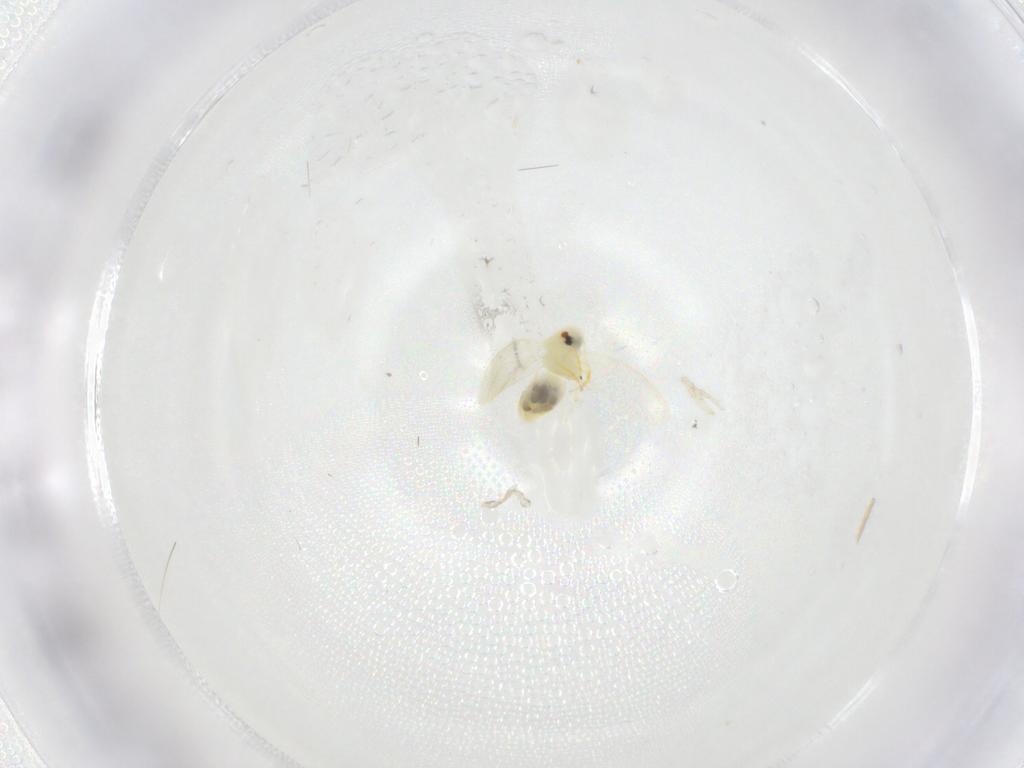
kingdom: Animalia
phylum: Arthropoda
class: Insecta
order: Hemiptera
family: Aleyrodidae
